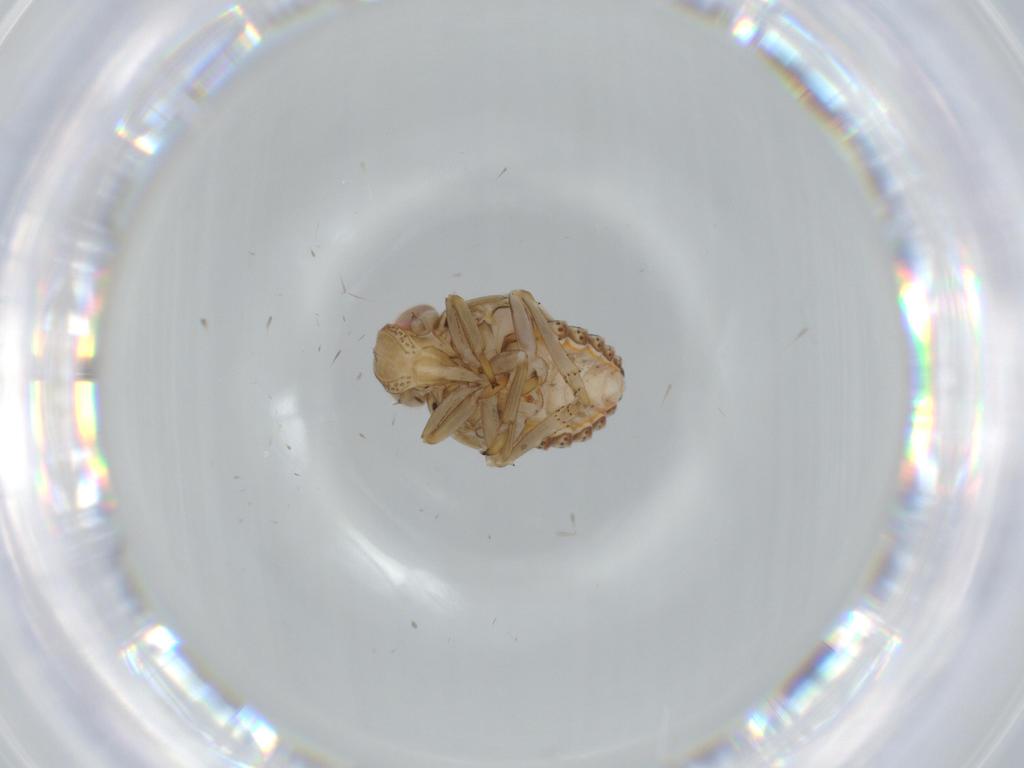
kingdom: Animalia
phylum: Arthropoda
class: Insecta
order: Hemiptera
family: Issidae
